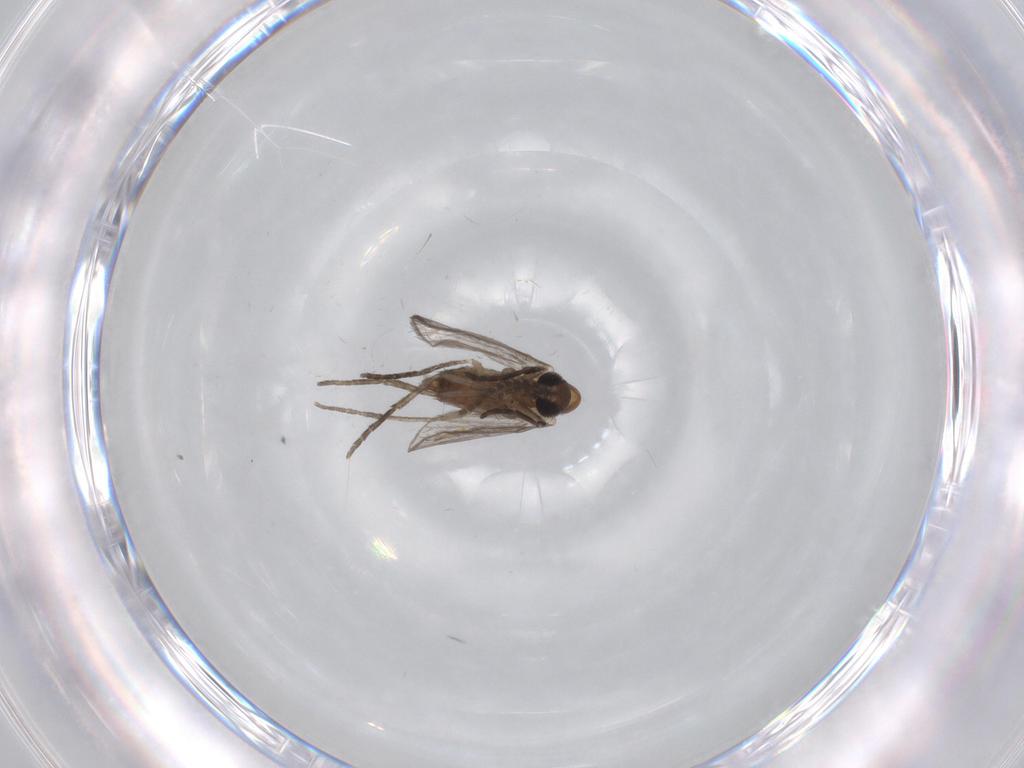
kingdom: Animalia
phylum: Arthropoda
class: Insecta
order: Diptera
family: Psychodidae
